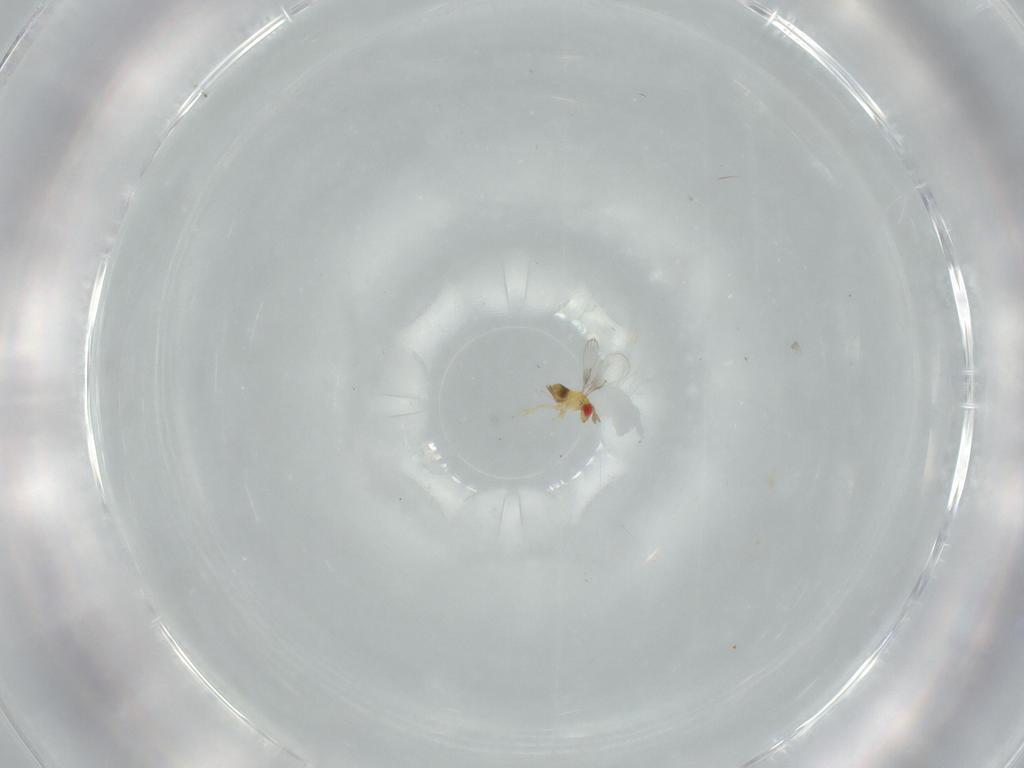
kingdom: Animalia
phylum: Arthropoda
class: Insecta
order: Hymenoptera
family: Trichogrammatidae
